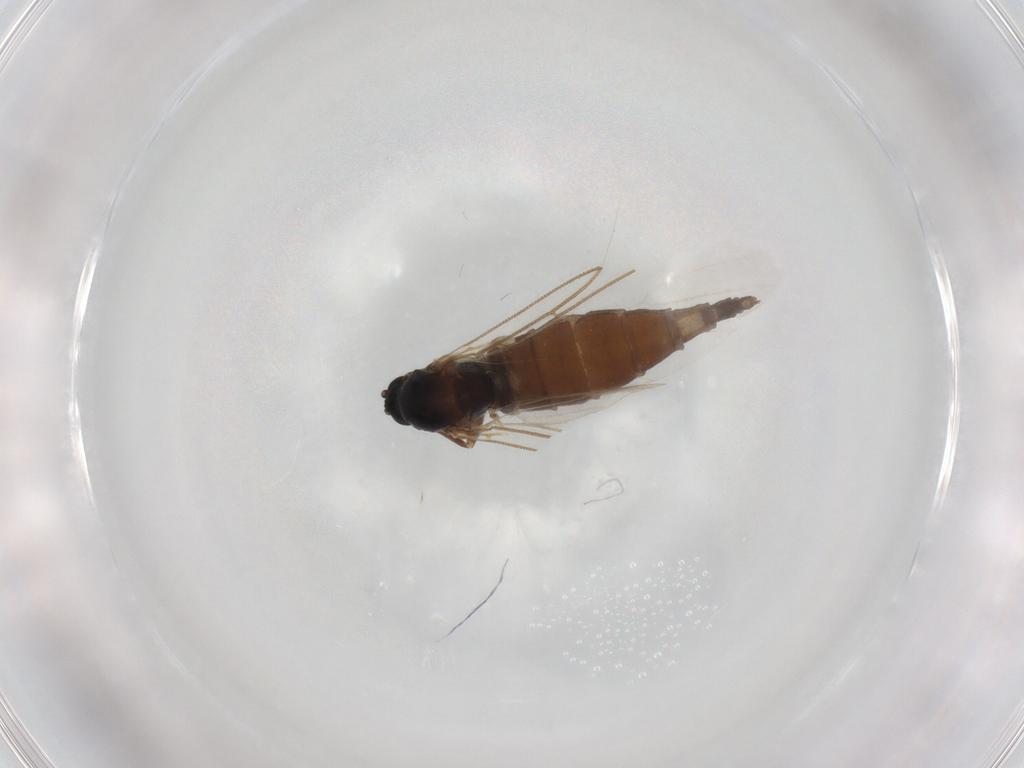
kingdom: Animalia
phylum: Arthropoda
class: Insecta
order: Diptera
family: Sciaridae
